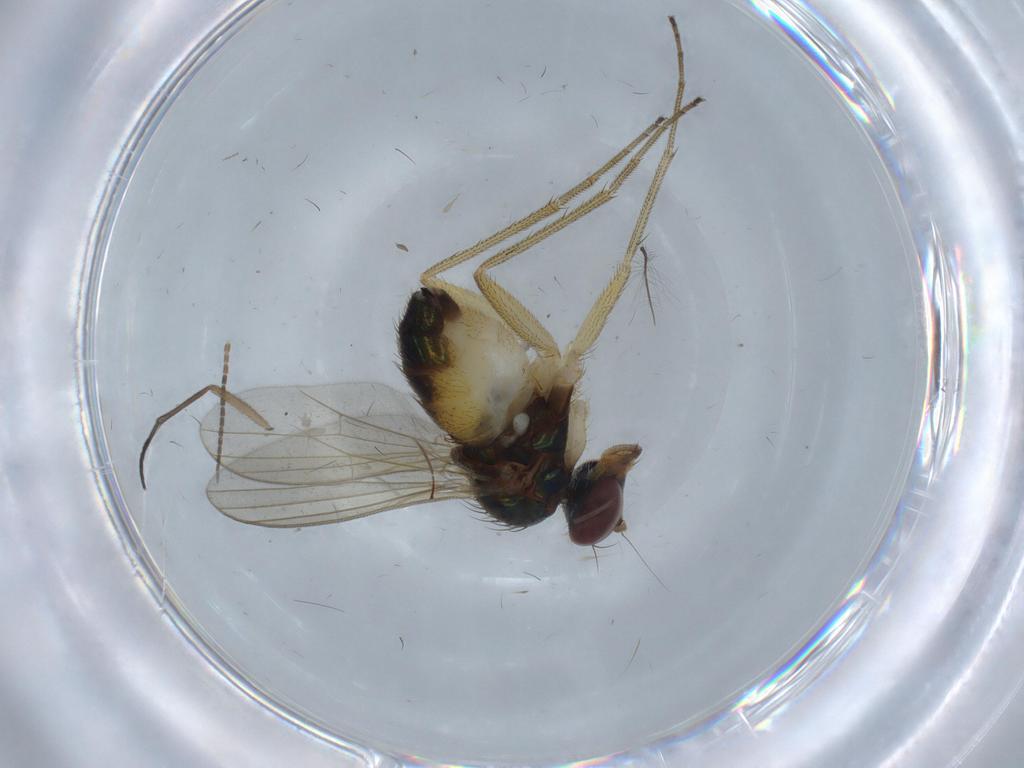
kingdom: Animalia
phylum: Arthropoda
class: Insecta
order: Diptera
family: Dolichopodidae
